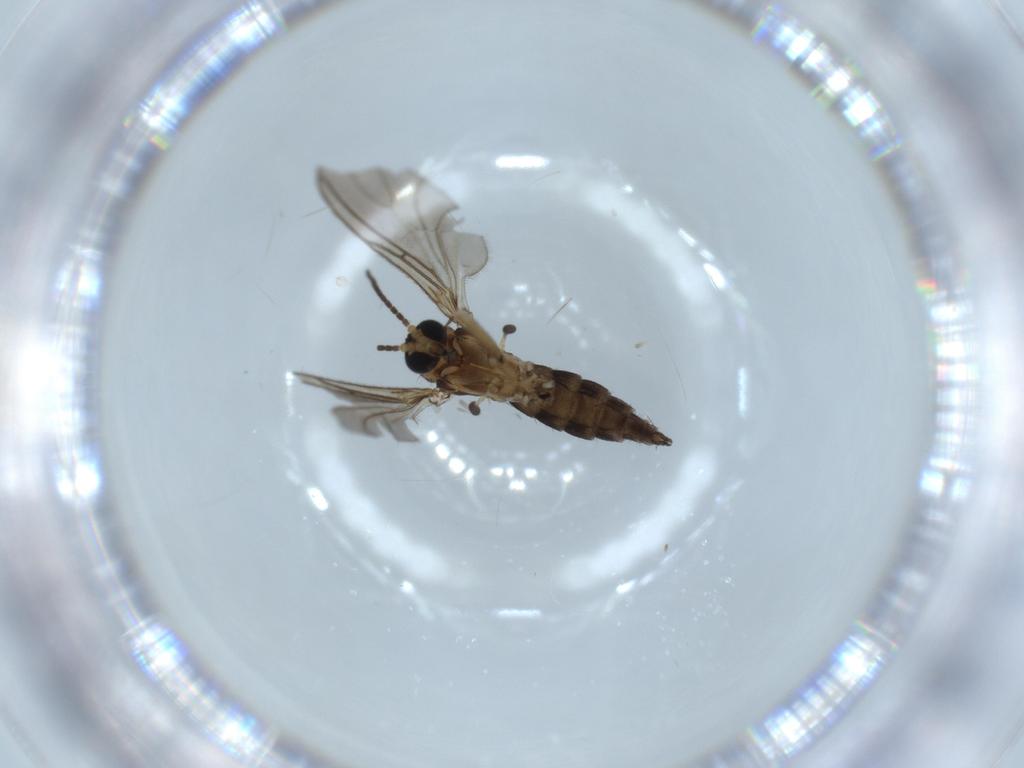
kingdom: Animalia
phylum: Arthropoda
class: Insecta
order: Diptera
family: Sciaridae
